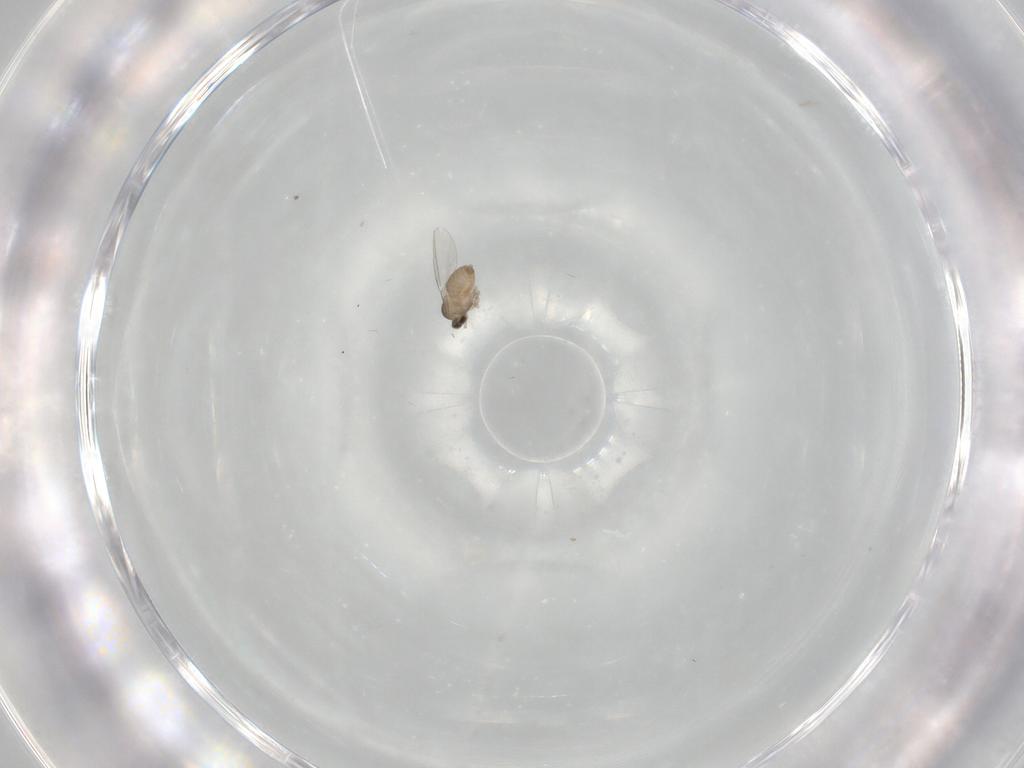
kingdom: Animalia
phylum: Arthropoda
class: Insecta
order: Diptera
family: Cecidomyiidae
